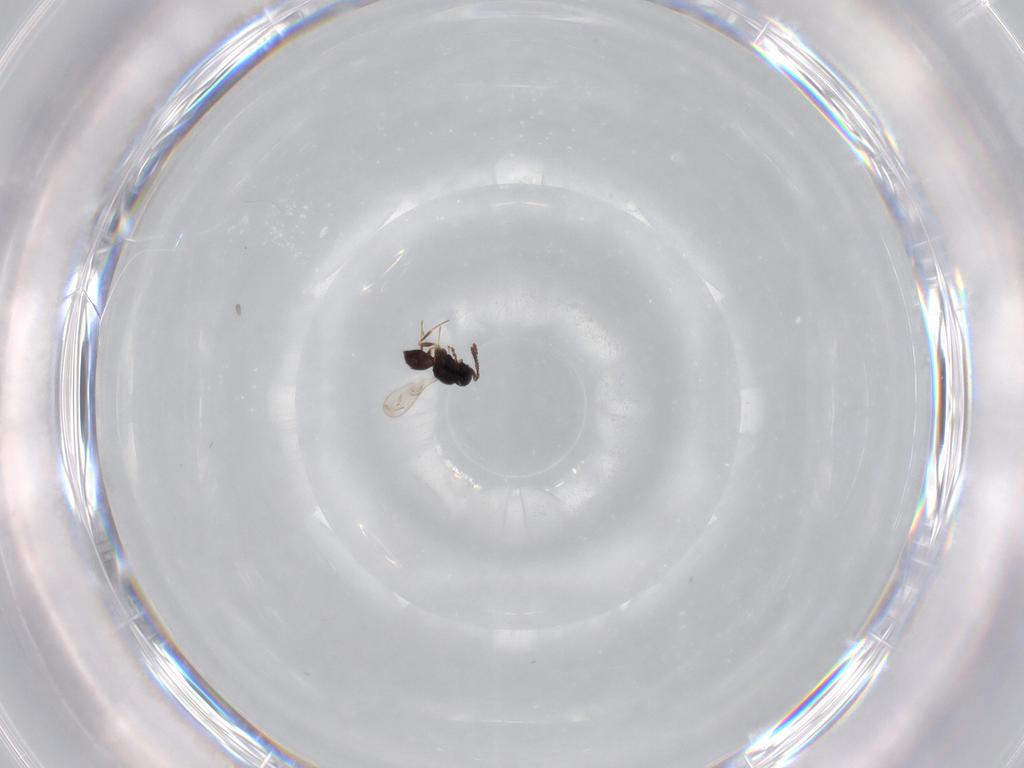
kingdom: Animalia
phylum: Arthropoda
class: Insecta
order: Hymenoptera
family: Scelionidae
